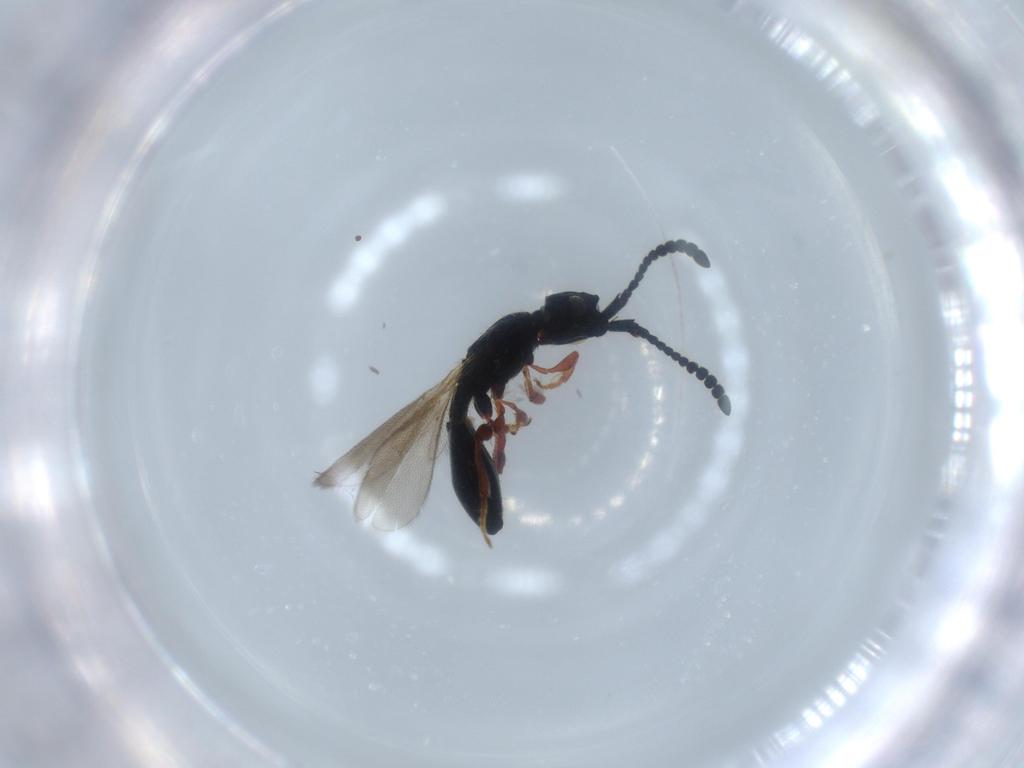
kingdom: Animalia
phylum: Arthropoda
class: Insecta
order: Hymenoptera
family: Diapriidae
